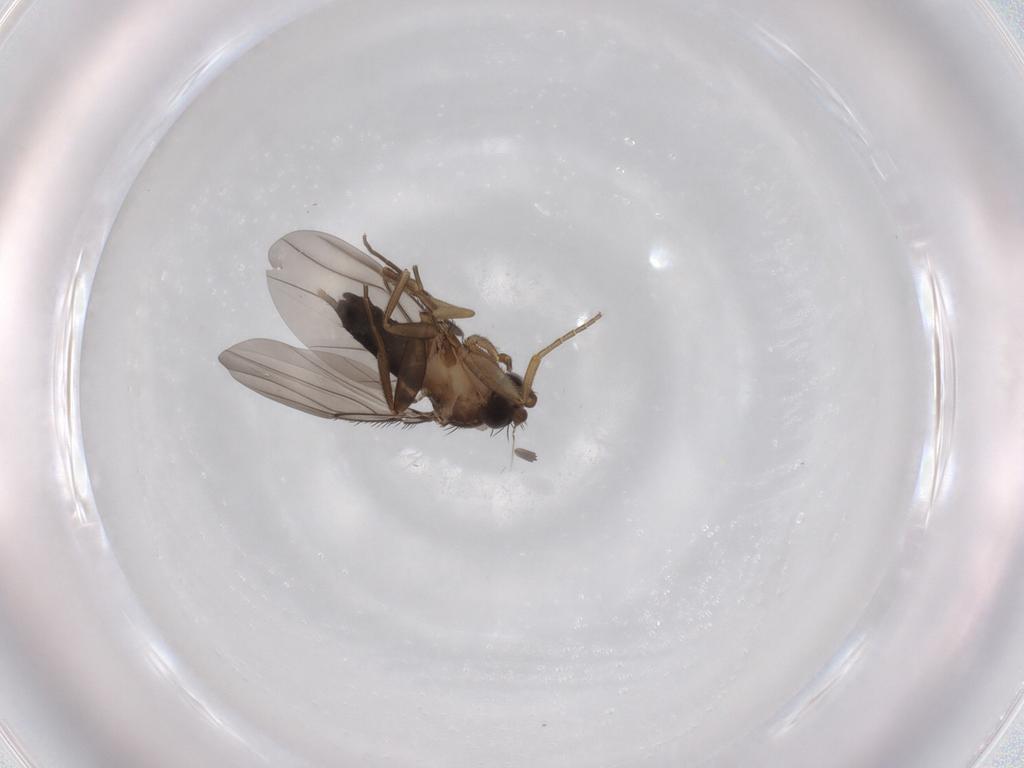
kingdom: Animalia
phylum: Arthropoda
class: Insecta
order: Diptera
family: Phoridae
